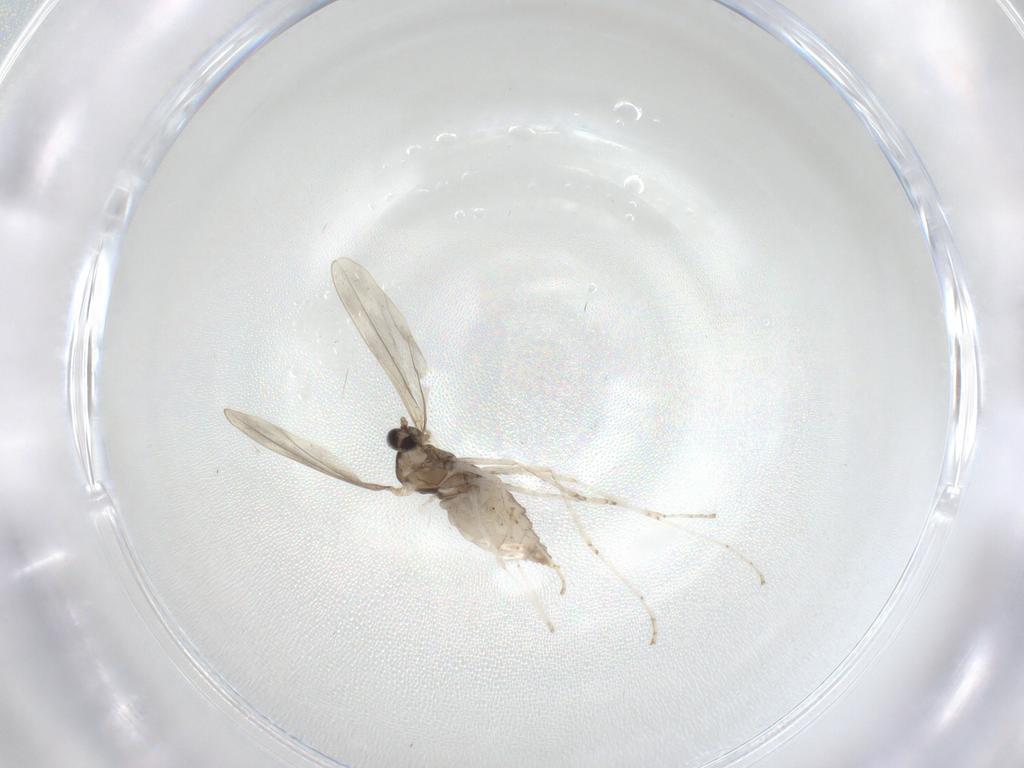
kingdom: Animalia
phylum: Arthropoda
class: Insecta
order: Diptera
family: Cecidomyiidae
